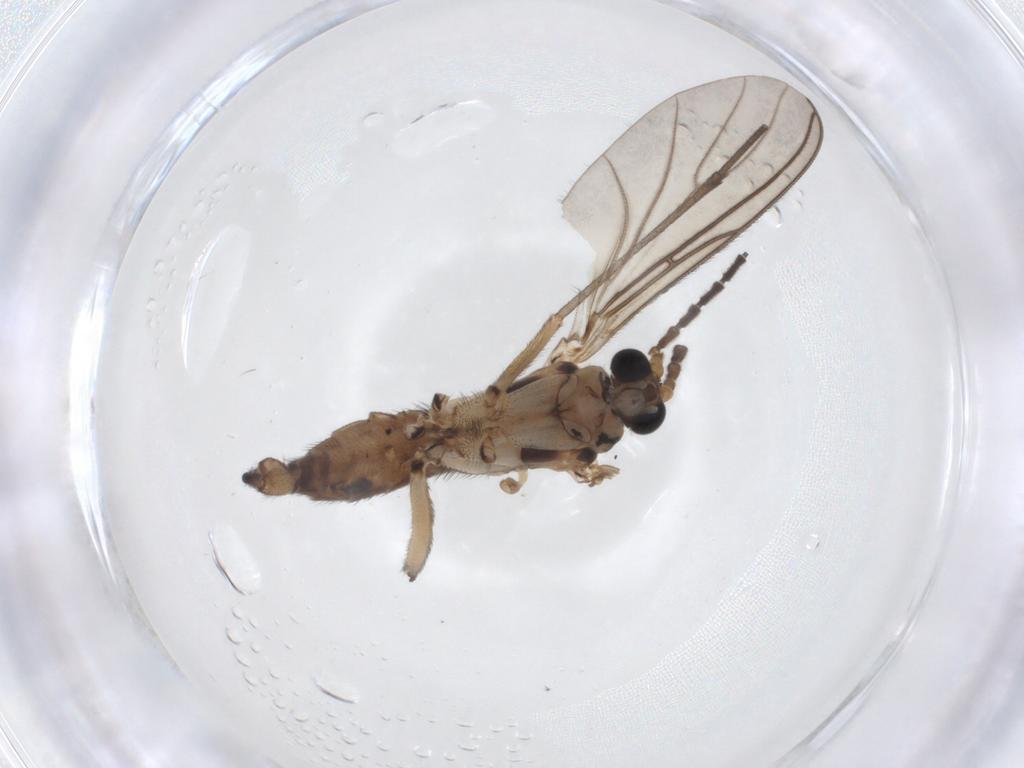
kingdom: Animalia
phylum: Arthropoda
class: Insecta
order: Diptera
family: Sciaridae
